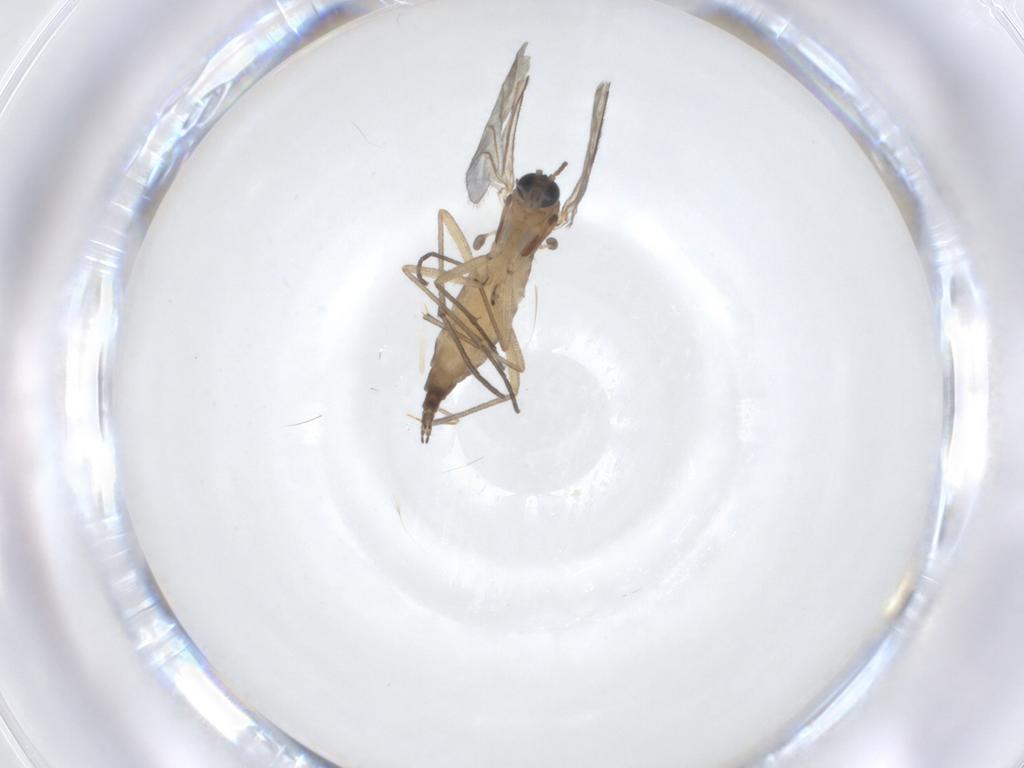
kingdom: Animalia
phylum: Arthropoda
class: Insecta
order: Diptera
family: Sciaridae
